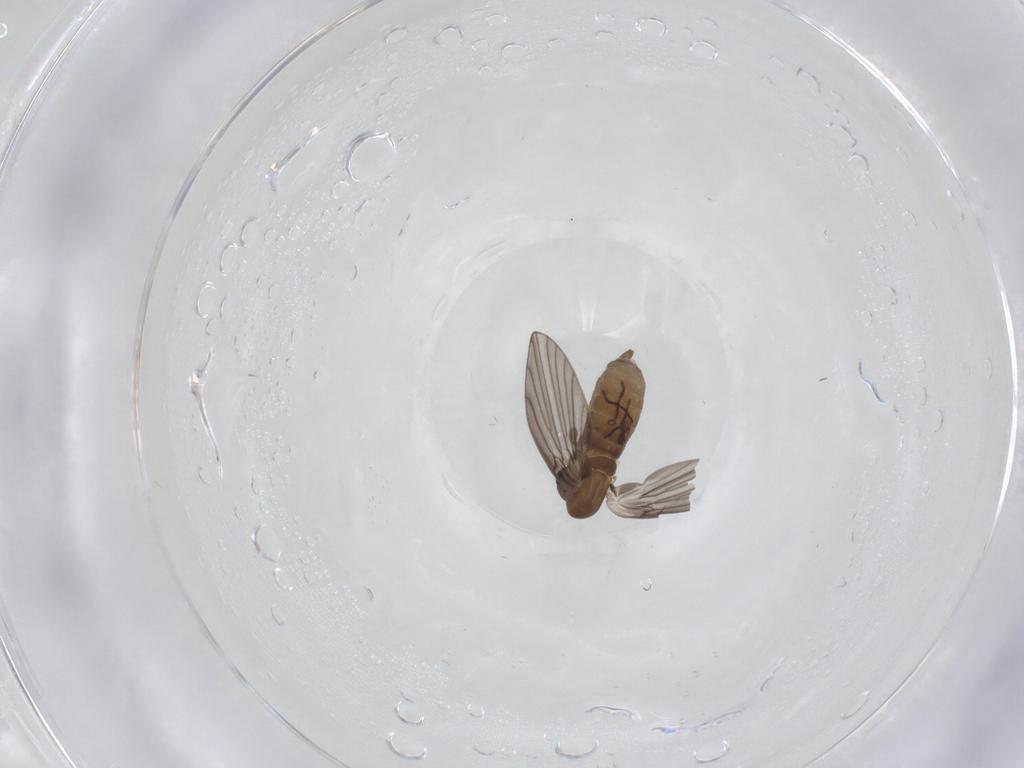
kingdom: Animalia
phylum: Arthropoda
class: Insecta
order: Diptera
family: Psychodidae
